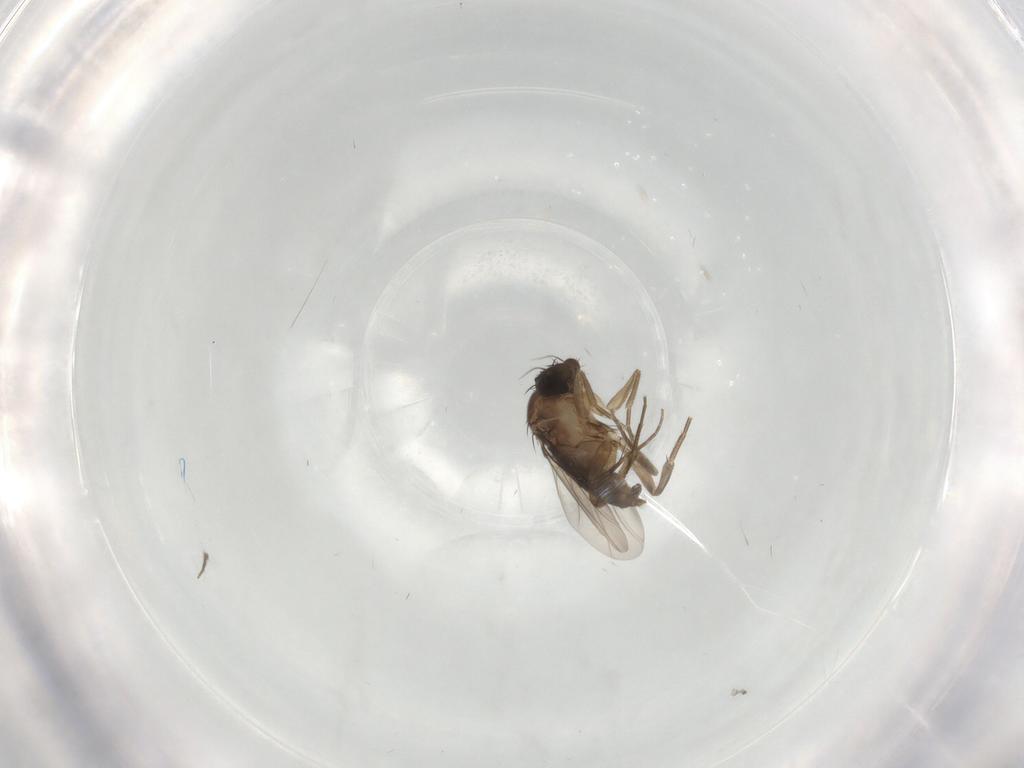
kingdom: Animalia
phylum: Arthropoda
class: Insecta
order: Diptera
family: Phoridae
